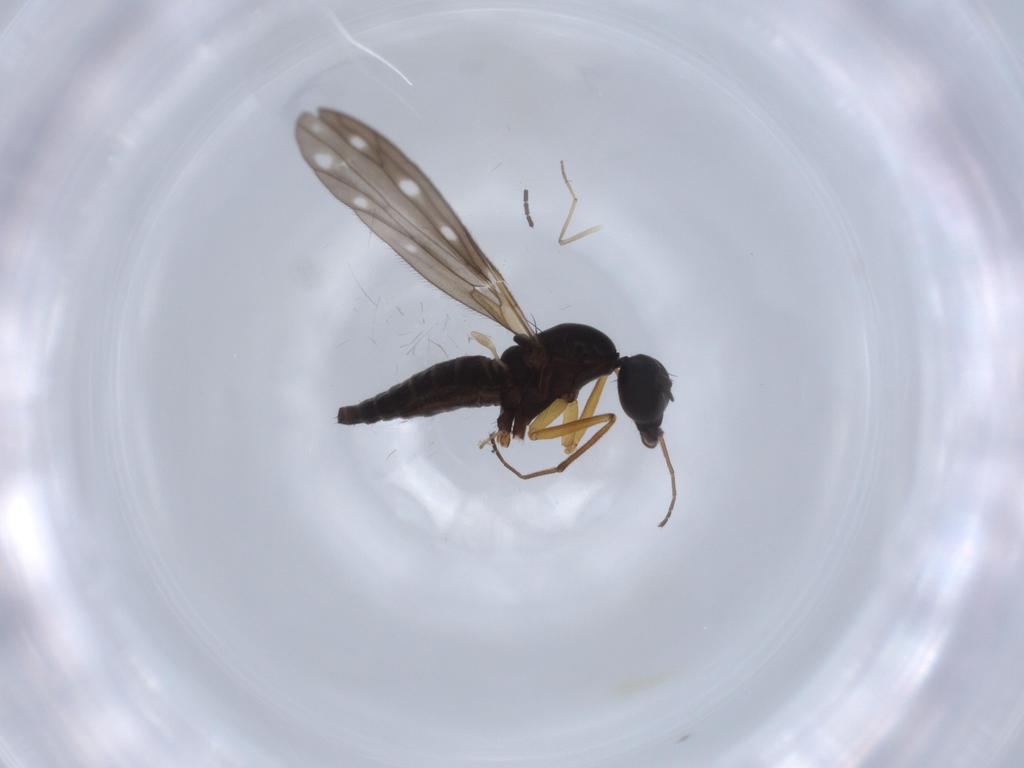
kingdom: Animalia
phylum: Arthropoda
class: Insecta
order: Diptera
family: Empididae
